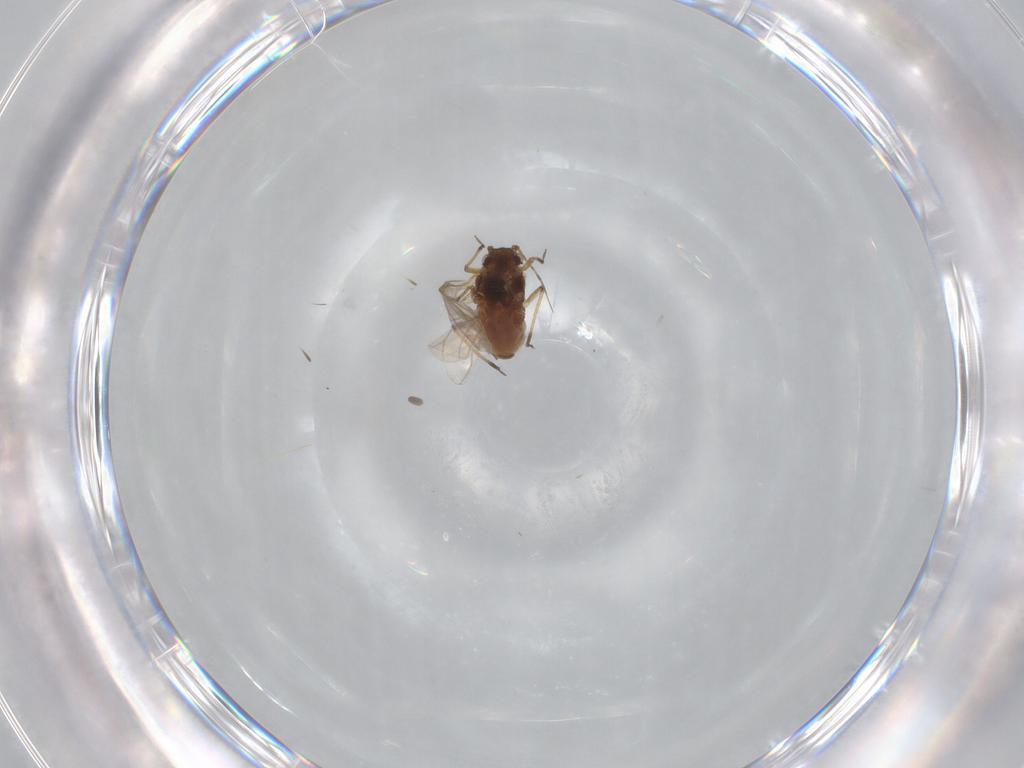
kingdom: Animalia
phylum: Arthropoda
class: Insecta
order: Hemiptera
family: Aphididae
